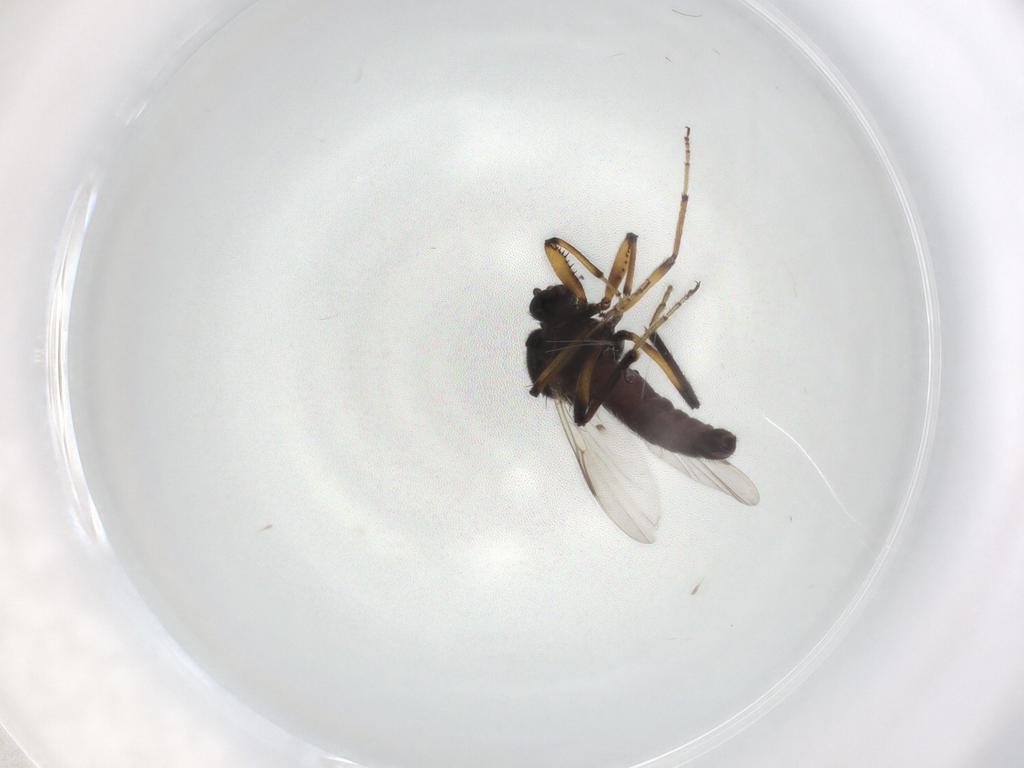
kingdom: Animalia
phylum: Arthropoda
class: Insecta
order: Diptera
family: Ceratopogonidae
